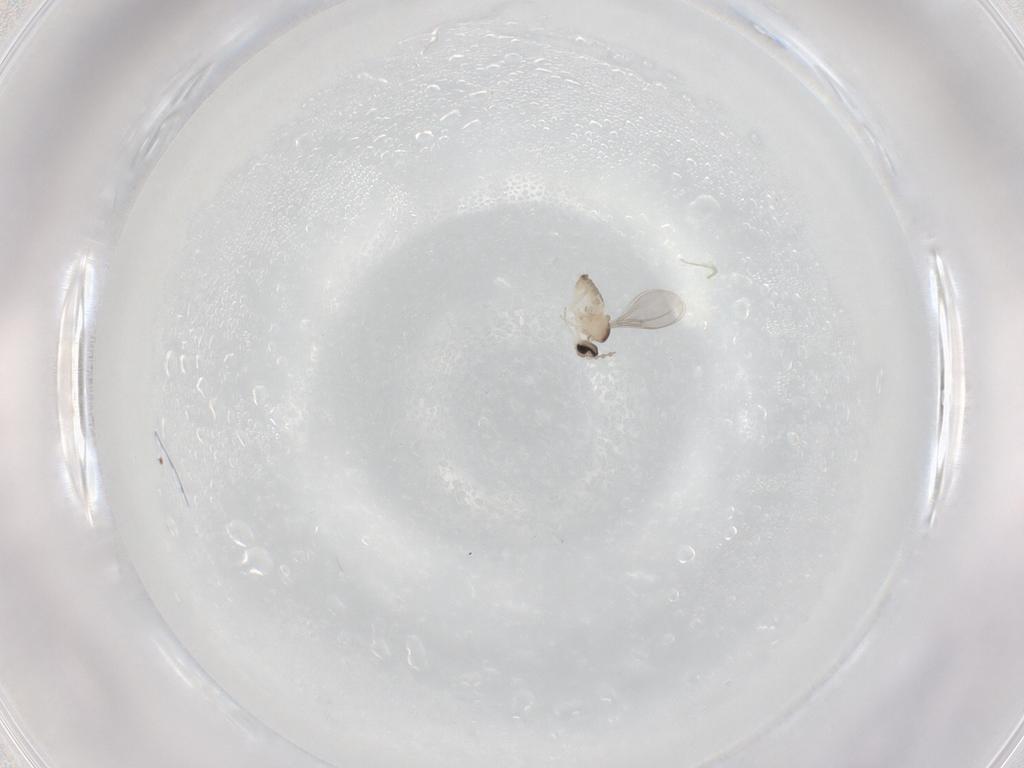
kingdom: Animalia
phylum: Arthropoda
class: Insecta
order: Diptera
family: Cecidomyiidae
